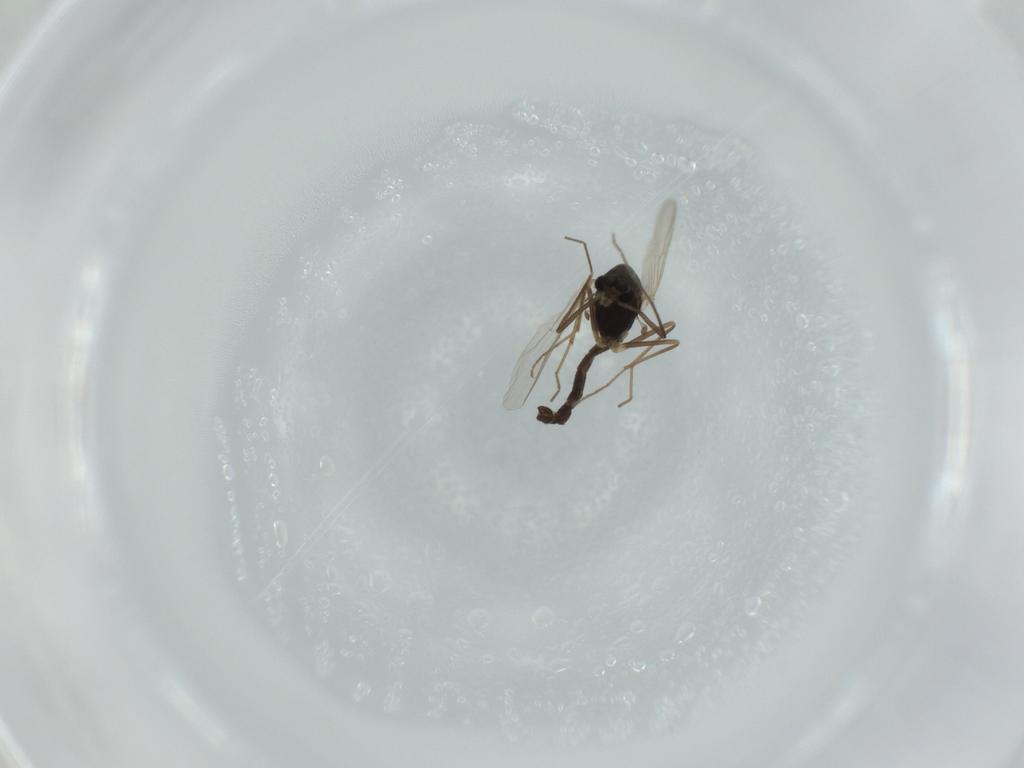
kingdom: Animalia
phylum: Arthropoda
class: Insecta
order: Diptera
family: Chironomidae
